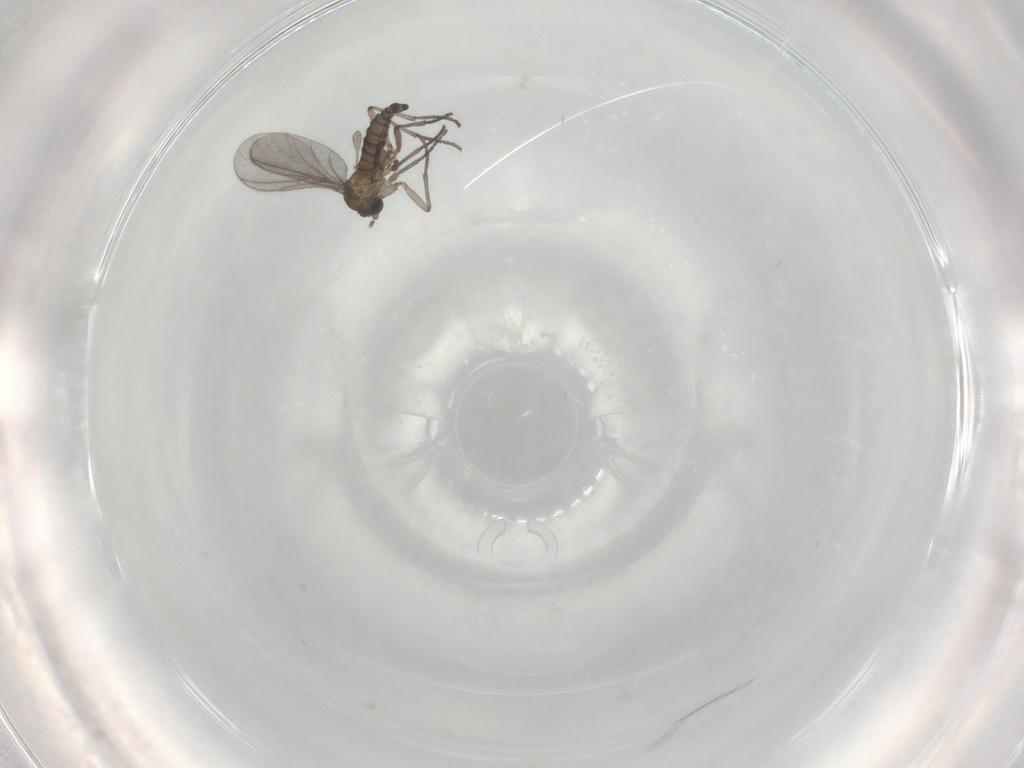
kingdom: Animalia
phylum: Arthropoda
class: Insecta
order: Diptera
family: Sciaridae
